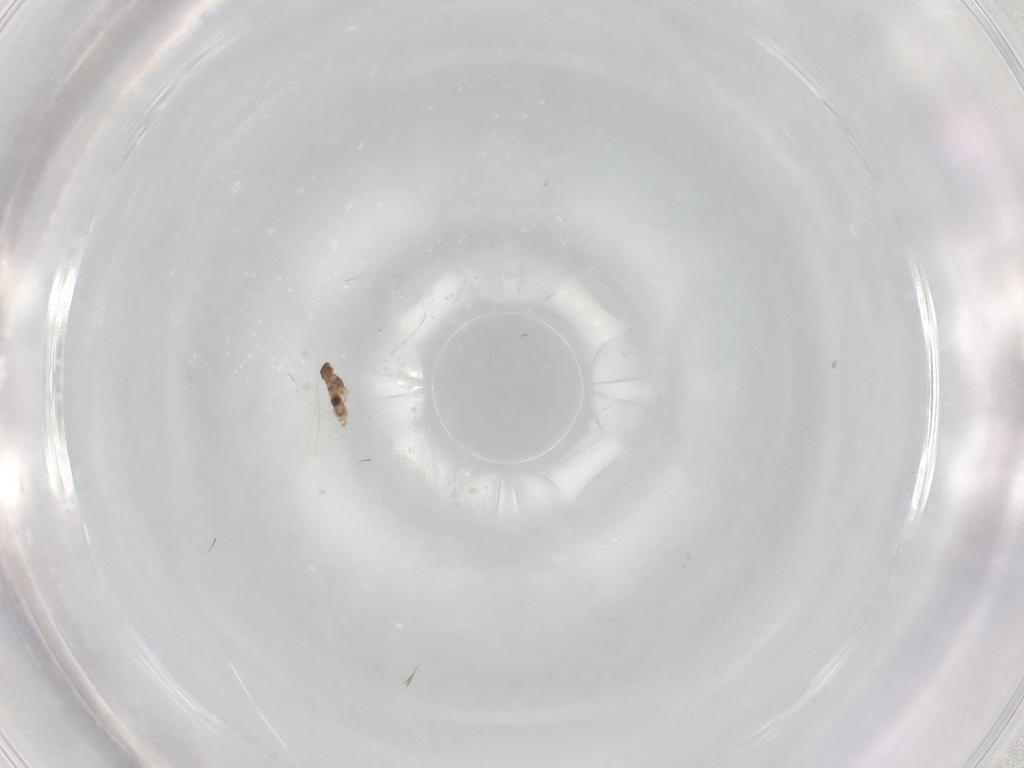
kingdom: Animalia
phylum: Arthropoda
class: Insecta
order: Diptera
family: Cecidomyiidae
